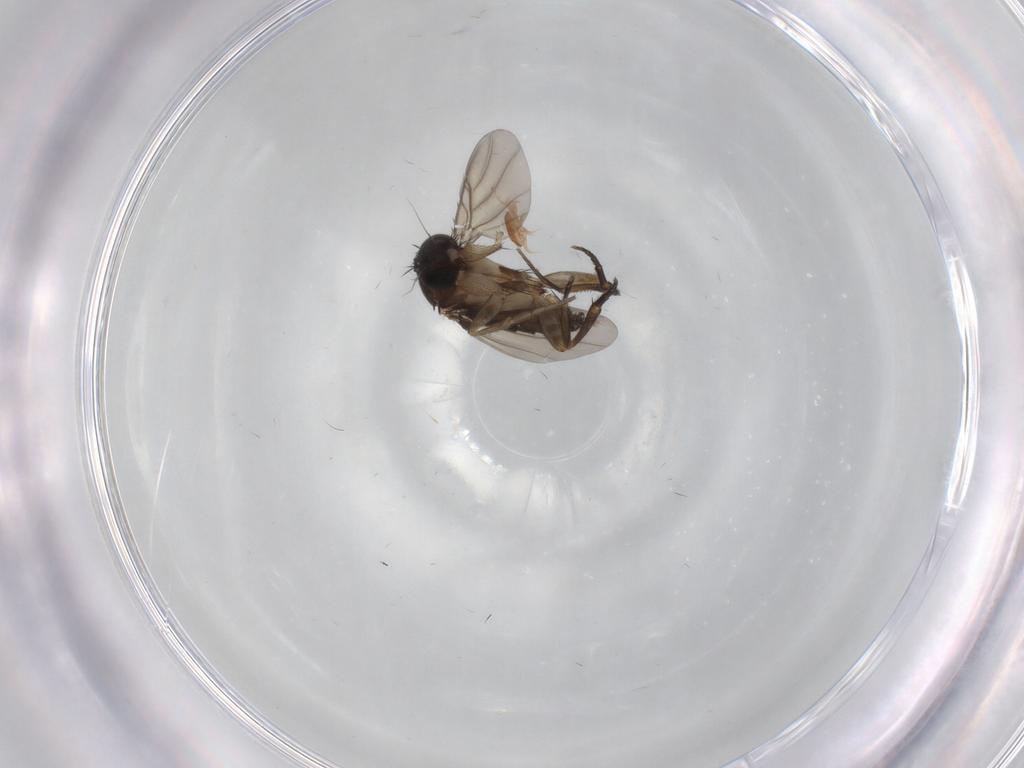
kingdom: Animalia
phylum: Arthropoda
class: Insecta
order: Diptera
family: Phoridae
